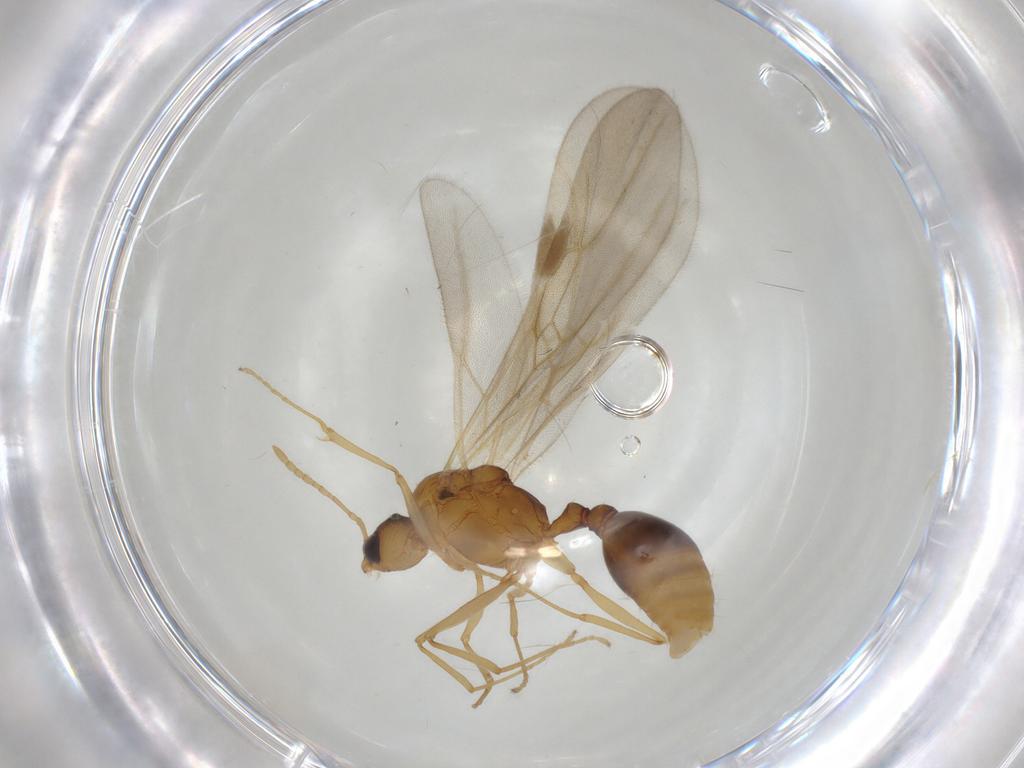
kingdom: Animalia
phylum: Arthropoda
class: Insecta
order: Hymenoptera
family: Formicidae
